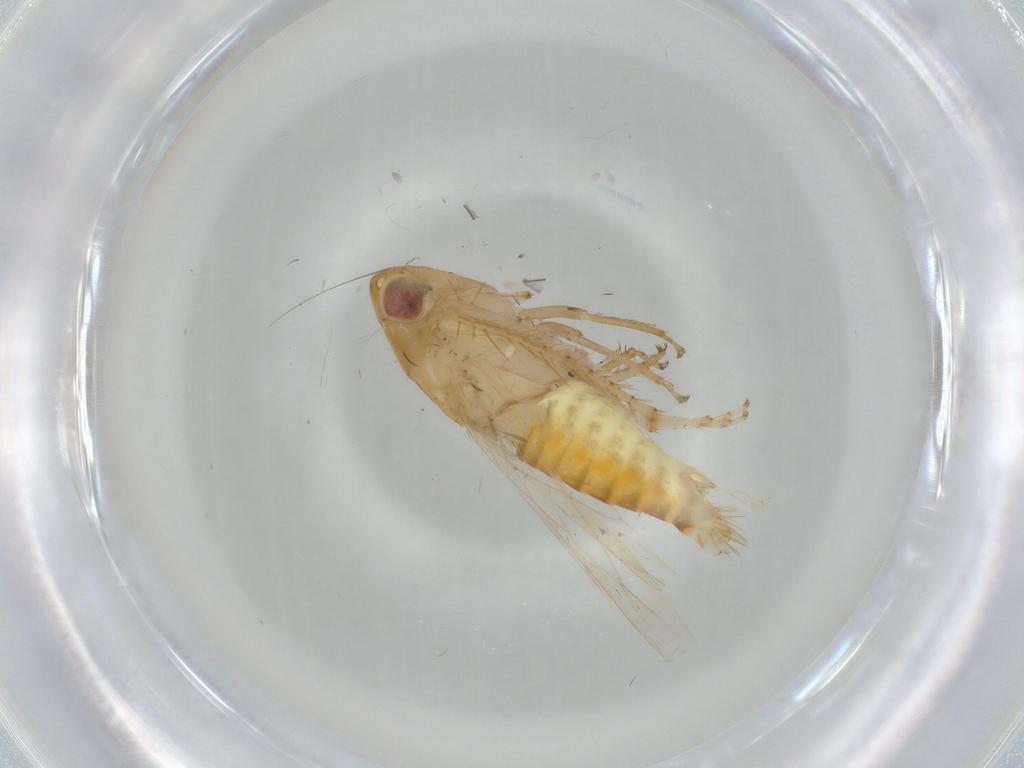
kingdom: Animalia
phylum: Arthropoda
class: Insecta
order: Hemiptera
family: Cicadellidae
